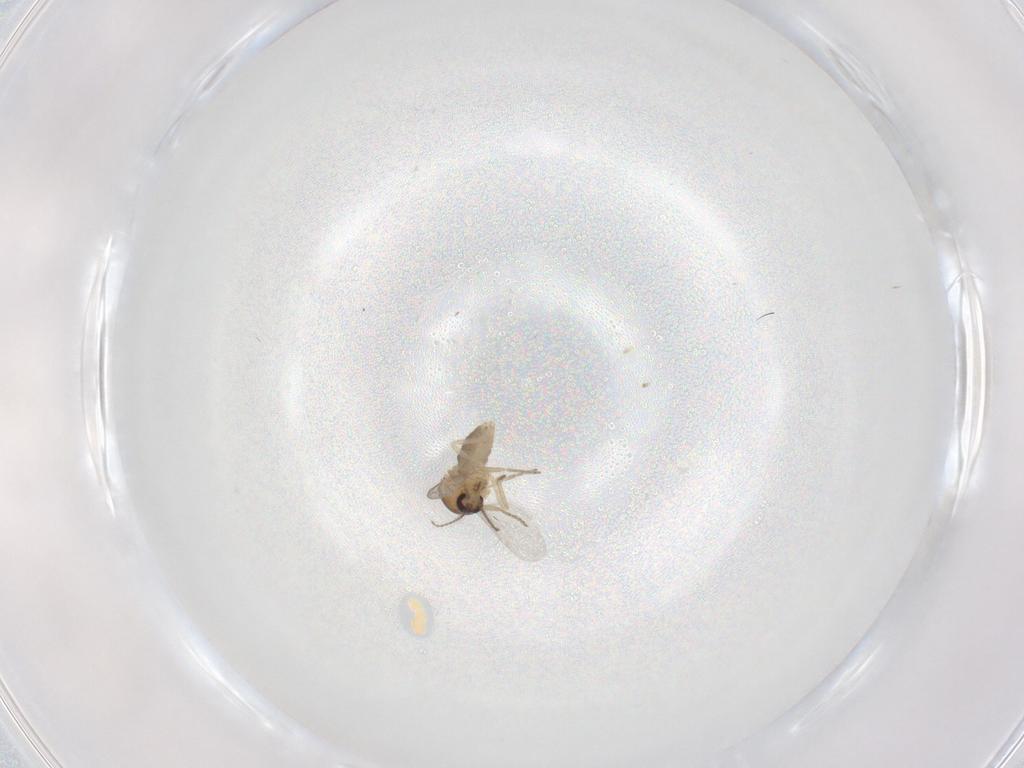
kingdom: Animalia
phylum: Arthropoda
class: Insecta
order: Diptera
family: Ceratopogonidae
